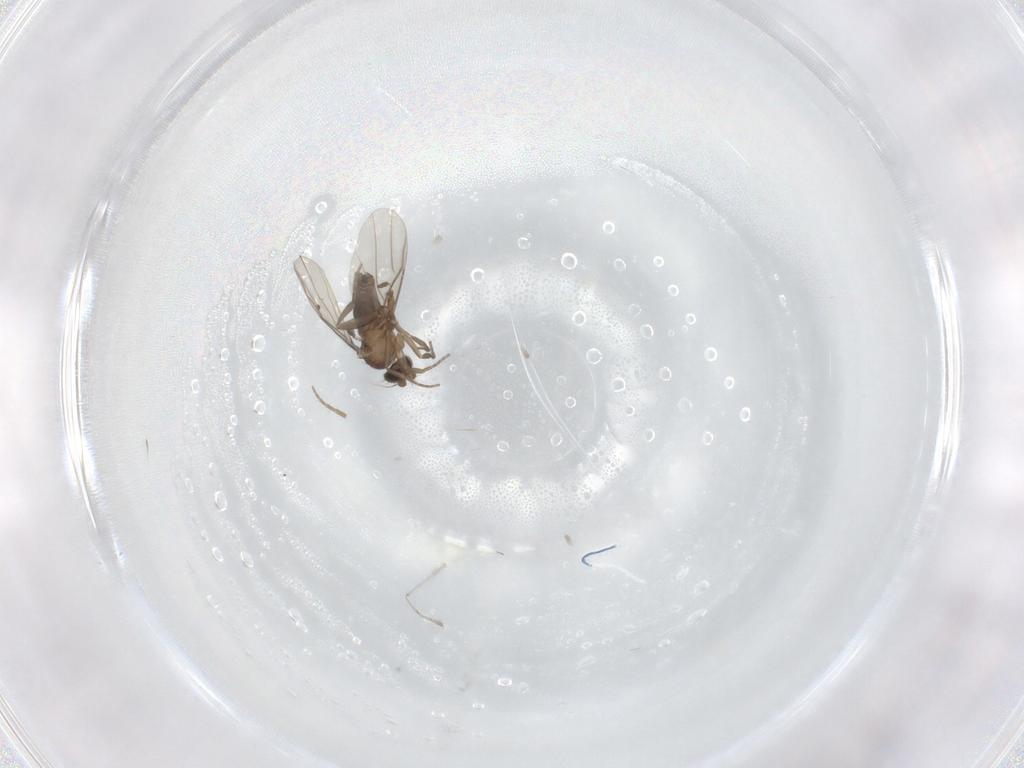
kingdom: Animalia
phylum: Arthropoda
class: Insecta
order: Diptera
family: Phoridae
